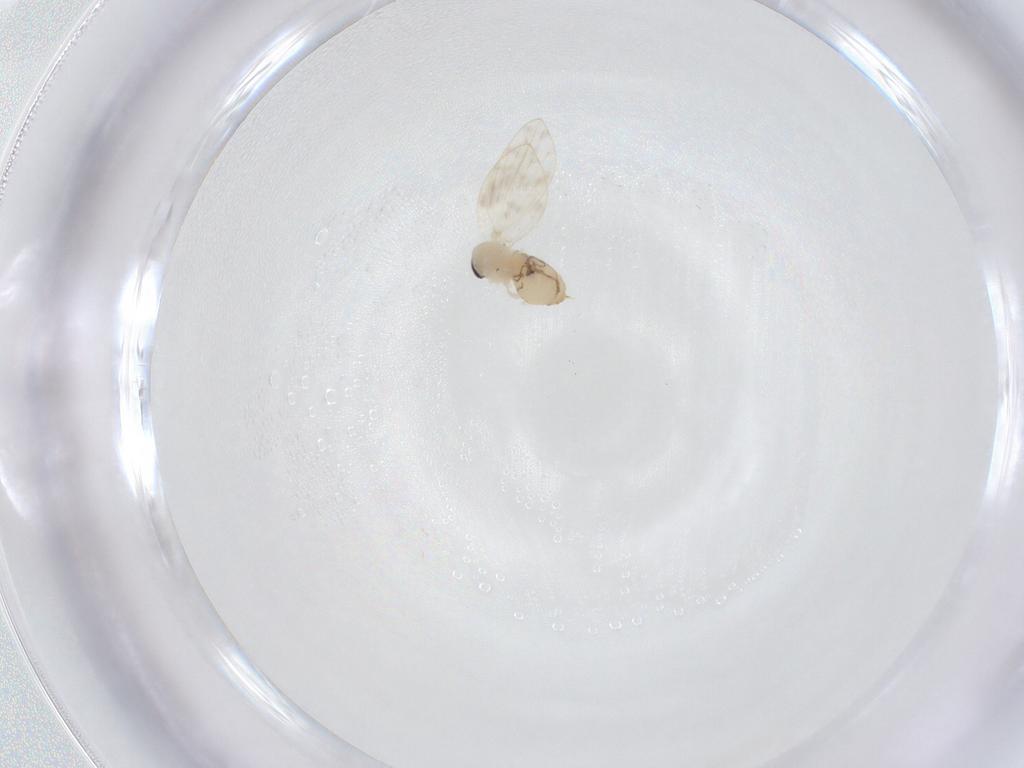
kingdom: Animalia
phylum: Arthropoda
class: Insecta
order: Diptera
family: Psychodidae
